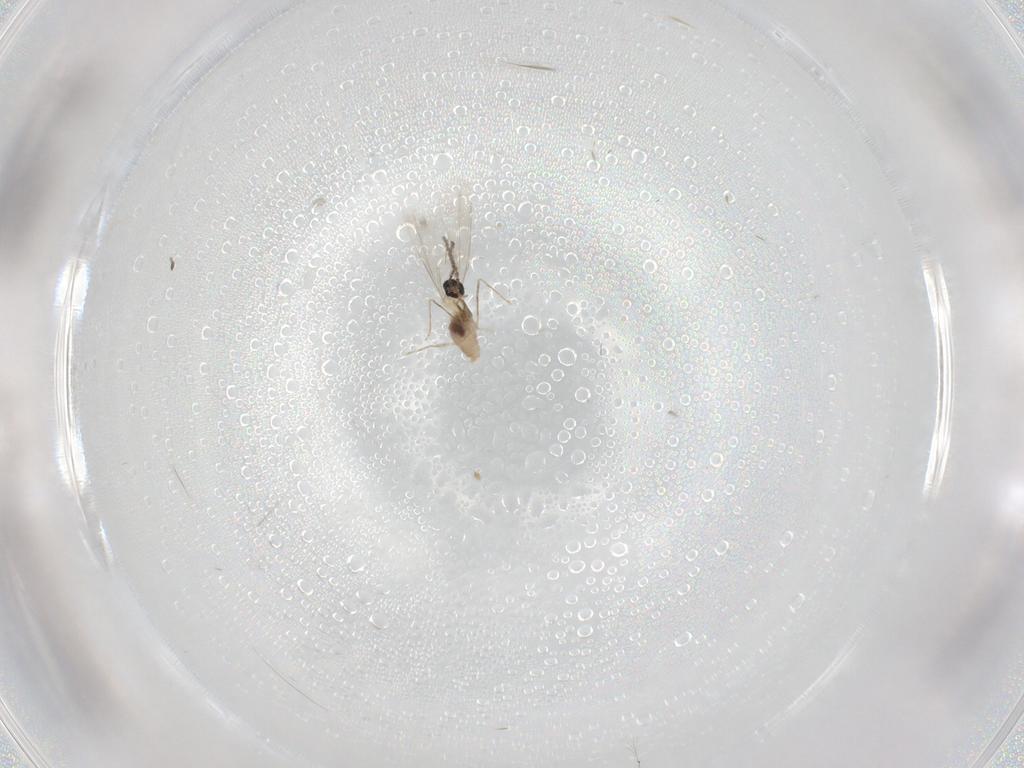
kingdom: Animalia
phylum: Arthropoda
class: Insecta
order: Diptera
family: Cecidomyiidae
